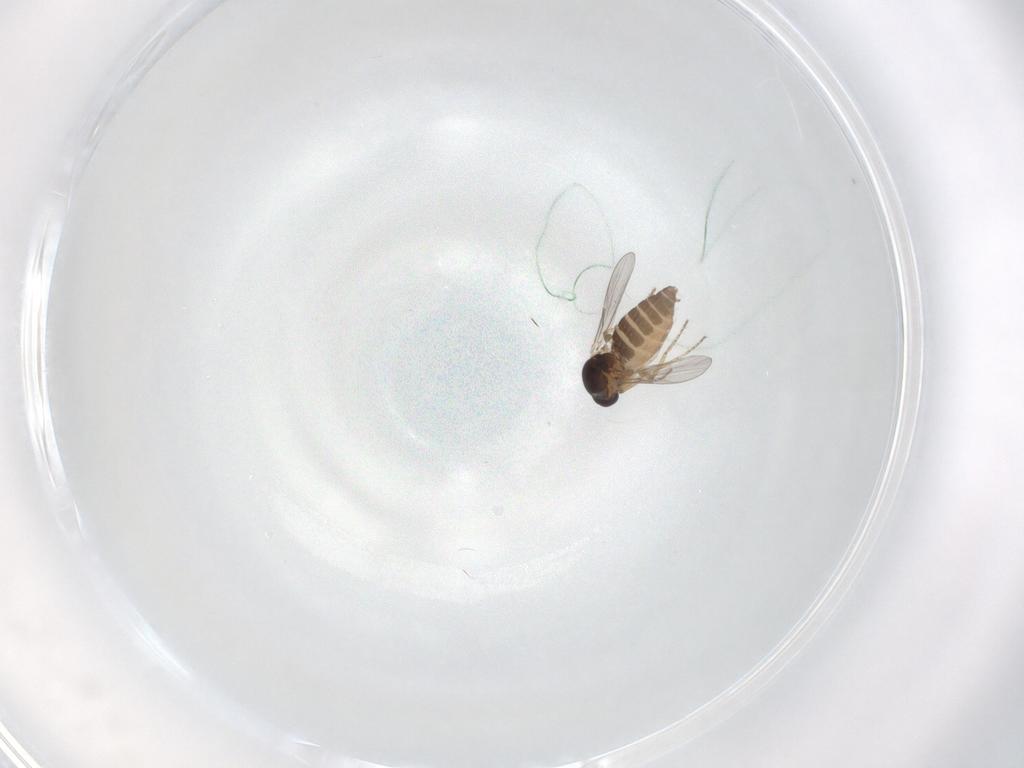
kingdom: Animalia
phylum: Arthropoda
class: Insecta
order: Diptera
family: Ceratopogonidae
